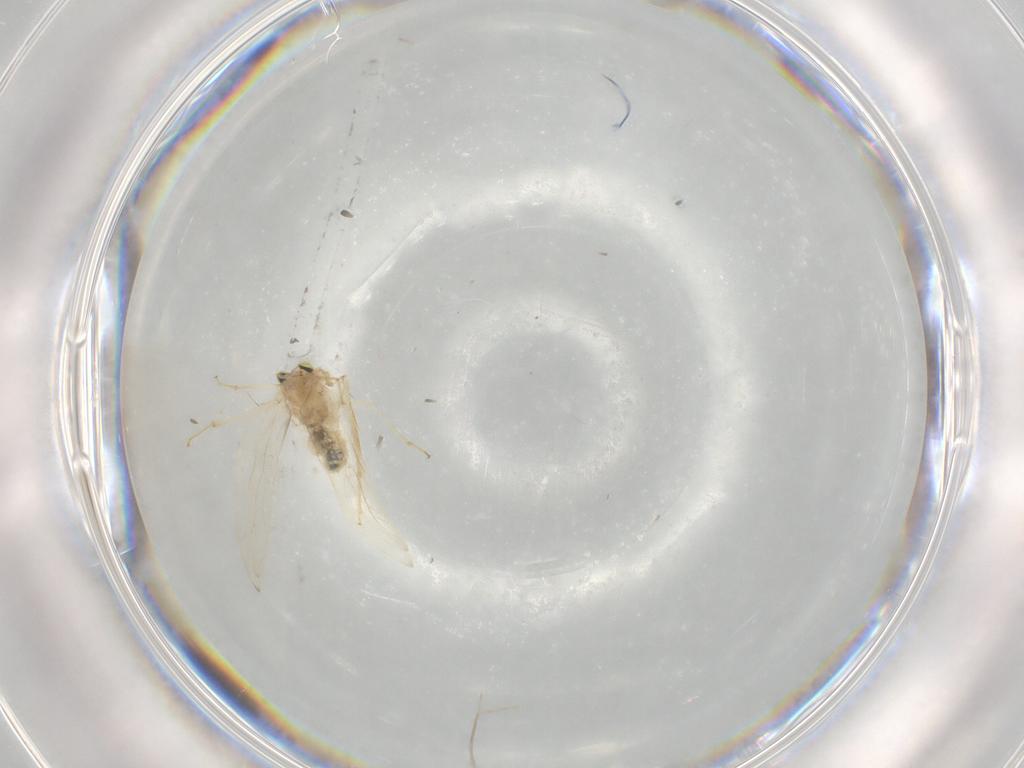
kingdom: Animalia
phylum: Arthropoda
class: Insecta
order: Psocodea
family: Lepidopsocidae
